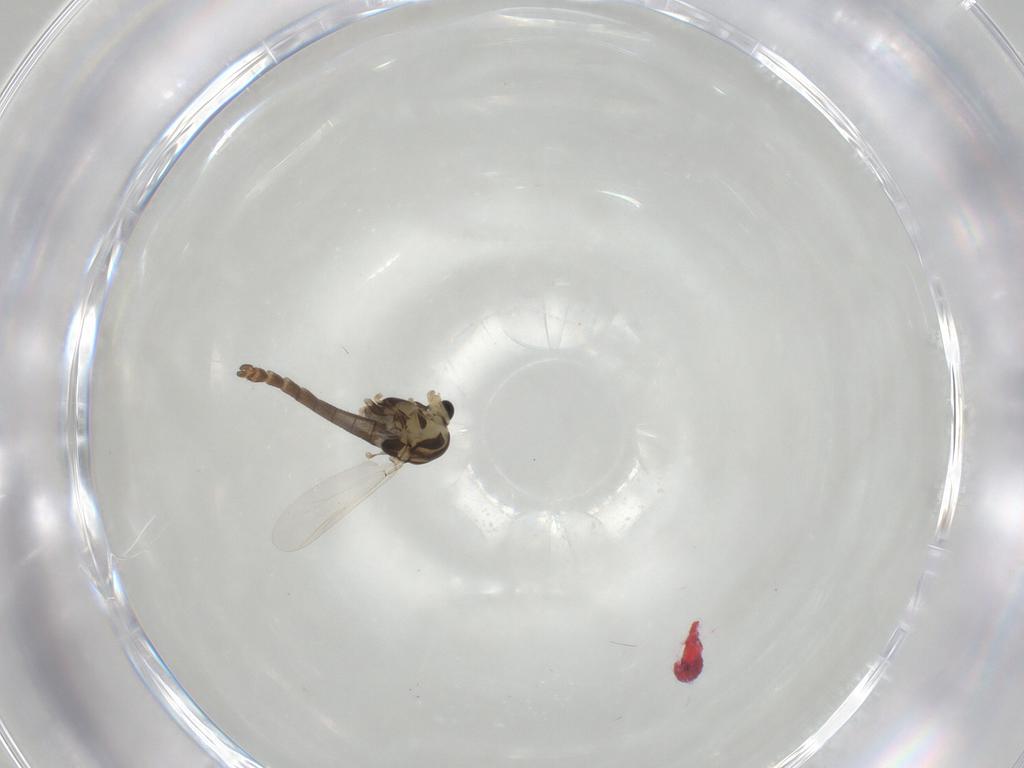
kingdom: Animalia
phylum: Arthropoda
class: Insecta
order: Diptera
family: Chironomidae
